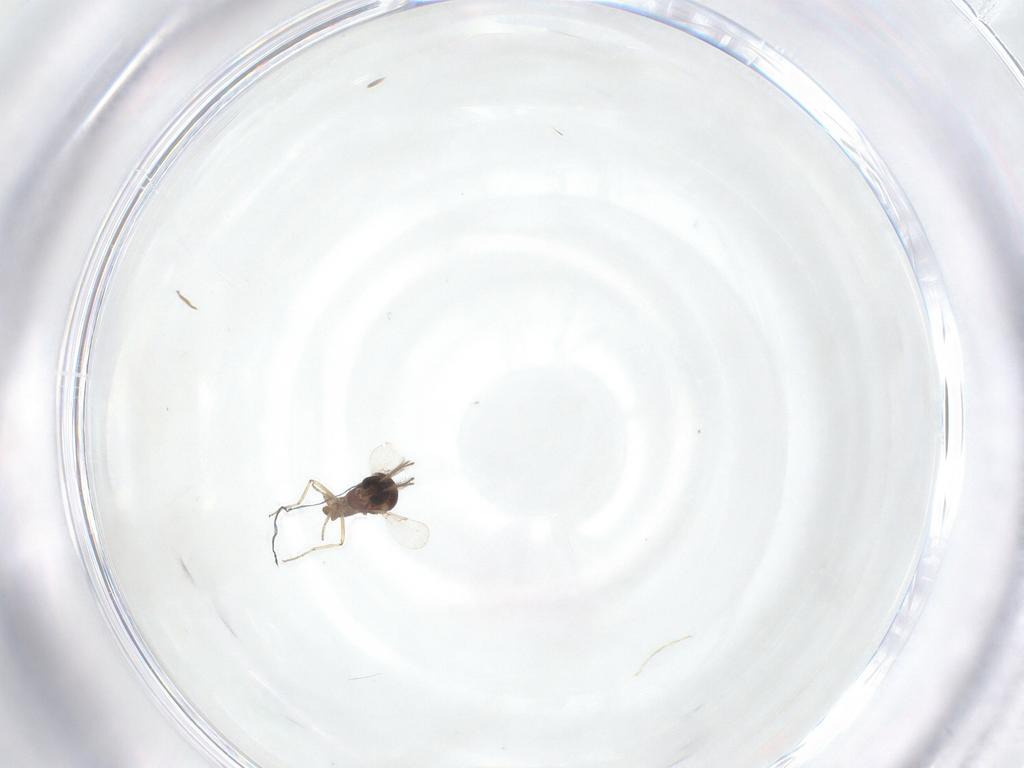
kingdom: Animalia
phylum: Arthropoda
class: Insecta
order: Diptera
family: Ceratopogonidae
